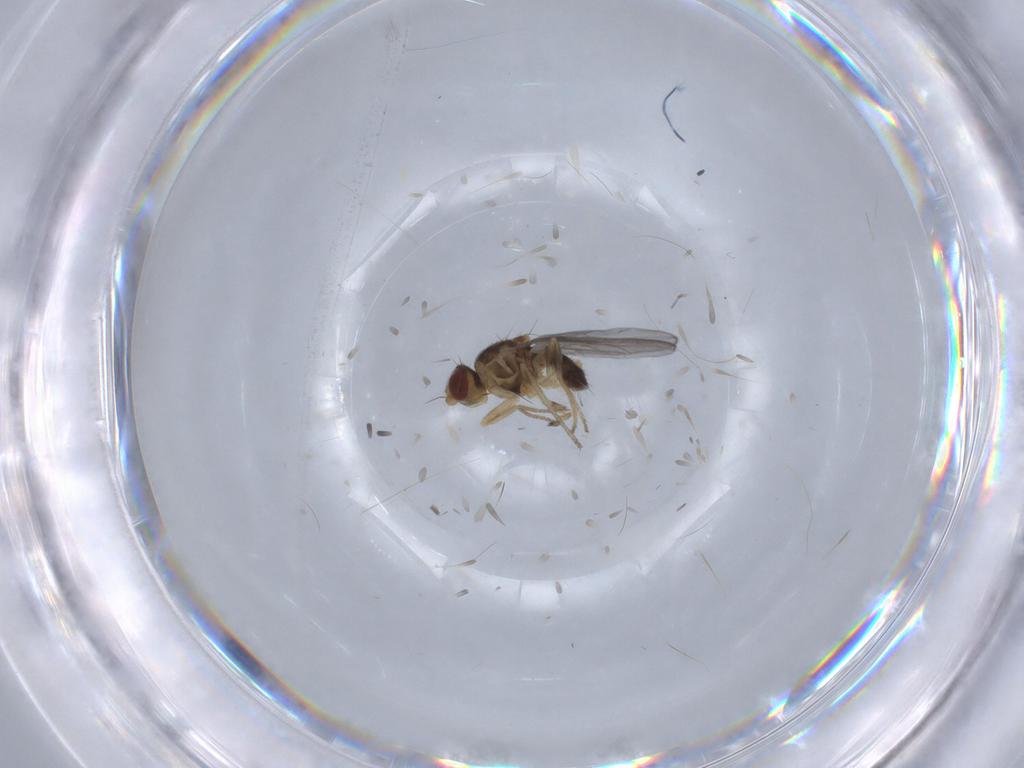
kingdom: Animalia
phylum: Arthropoda
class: Insecta
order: Diptera
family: Chloropidae
